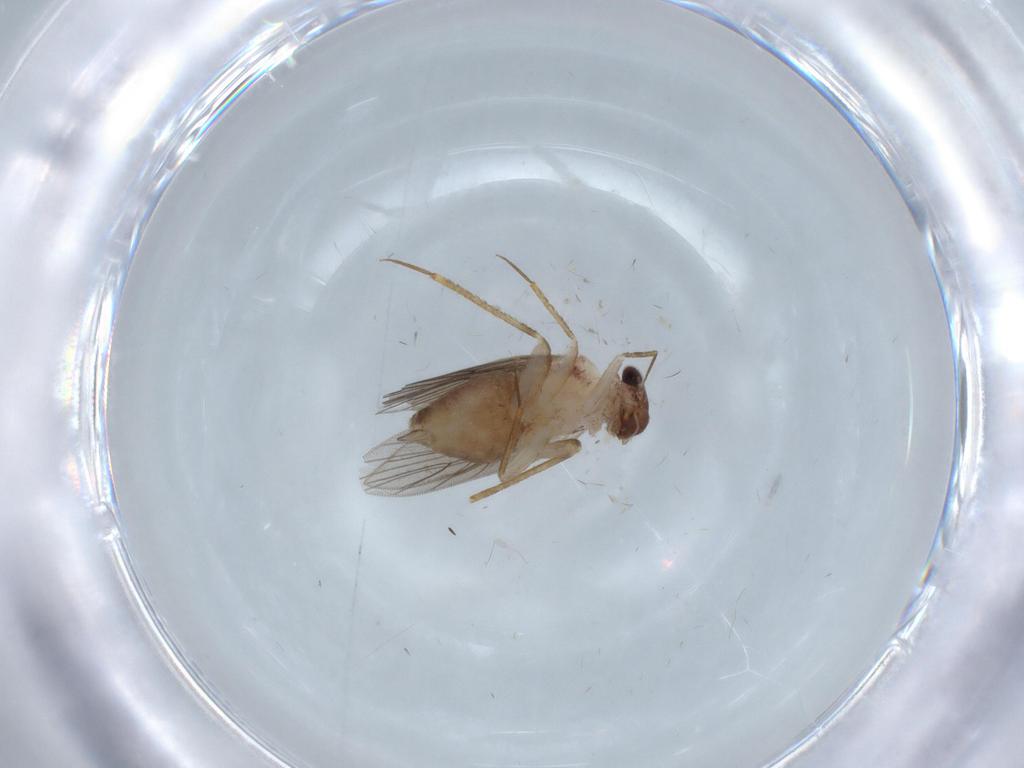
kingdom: Animalia
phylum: Arthropoda
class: Insecta
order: Psocodea
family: Lepidopsocidae
